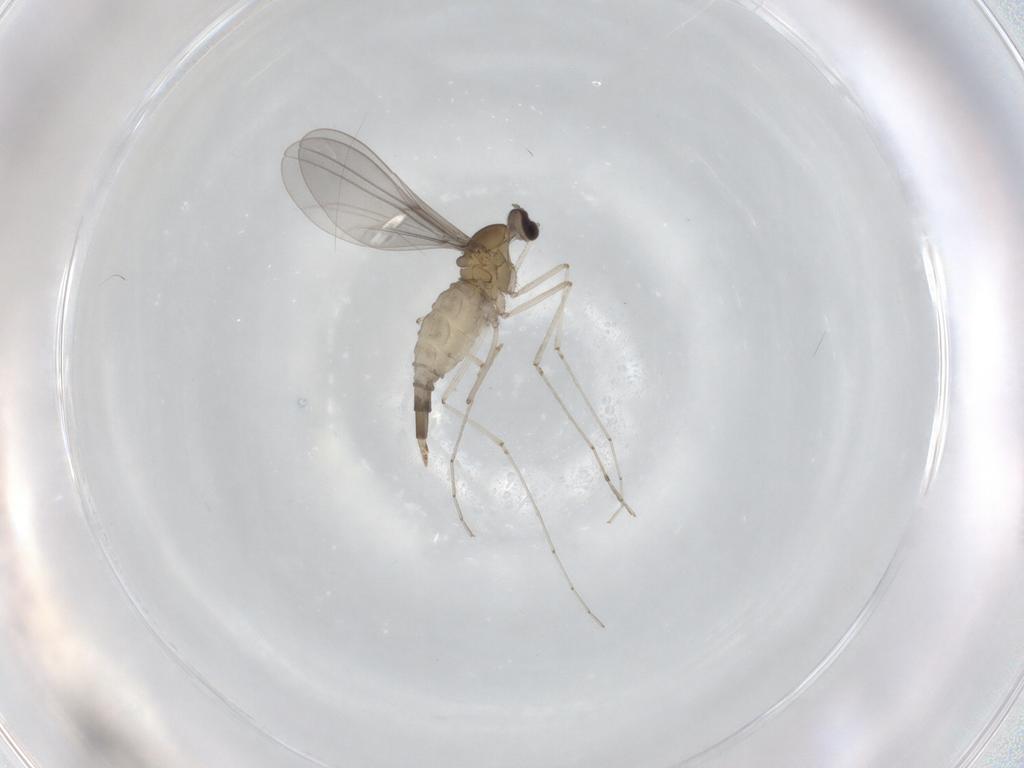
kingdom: Animalia
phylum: Arthropoda
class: Insecta
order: Diptera
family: Cecidomyiidae
